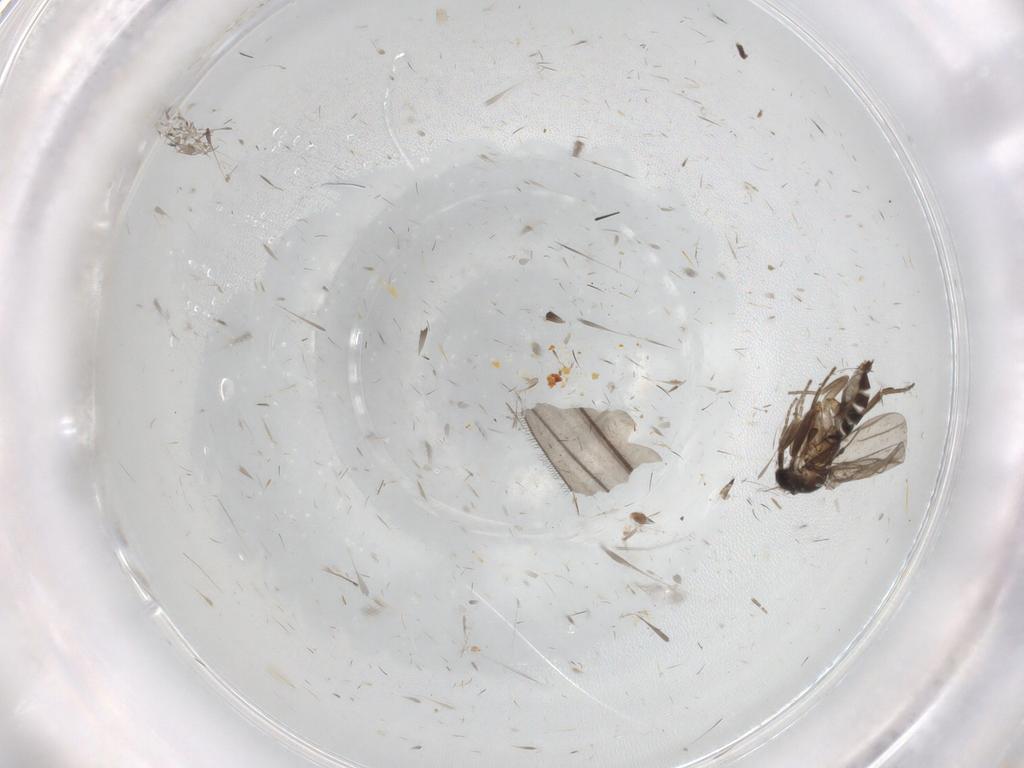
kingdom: Animalia
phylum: Arthropoda
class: Insecta
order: Diptera
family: Limoniidae
